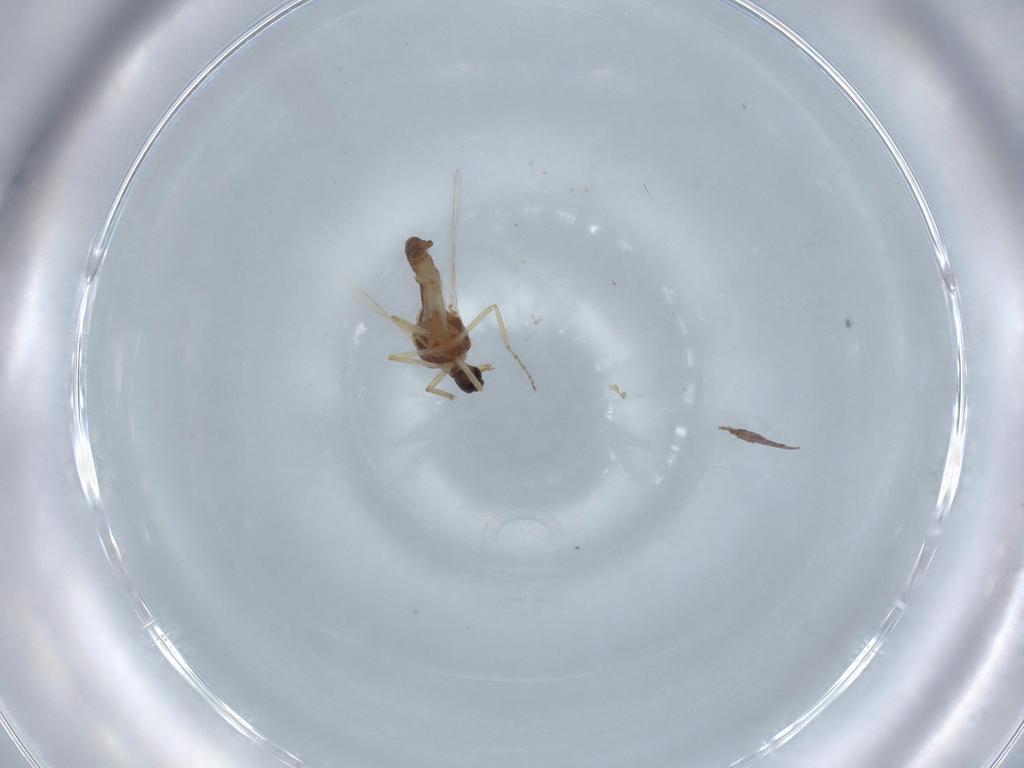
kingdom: Animalia
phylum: Arthropoda
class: Insecta
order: Diptera
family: Ceratopogonidae
